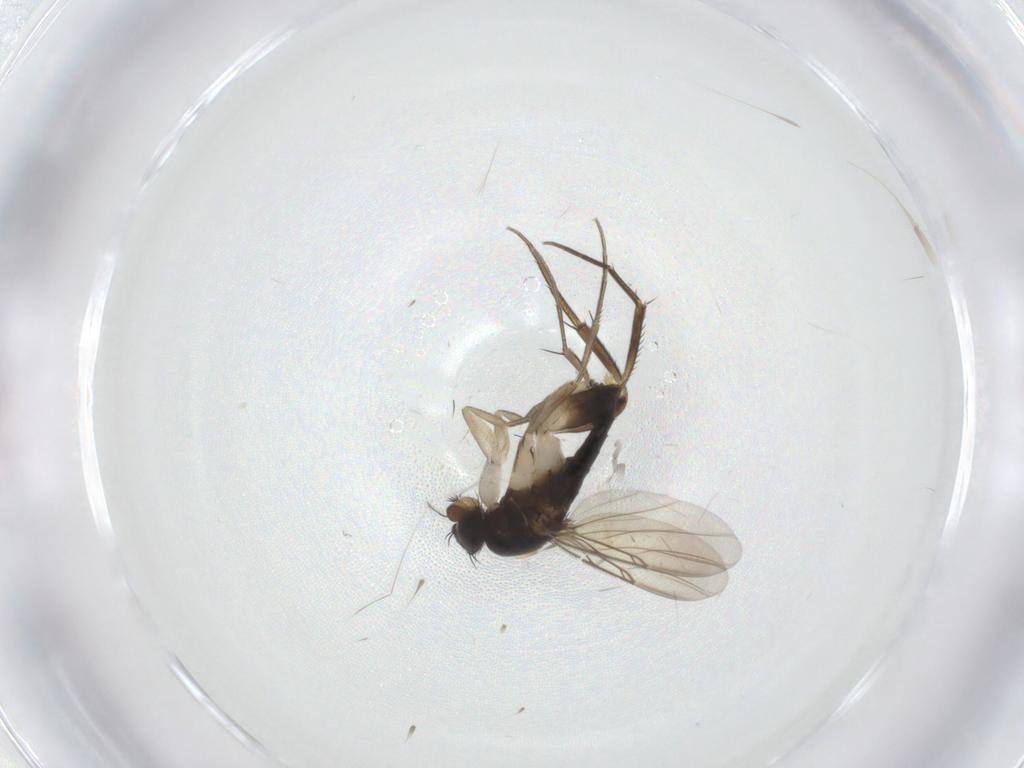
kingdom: Animalia
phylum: Arthropoda
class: Insecta
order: Diptera
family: Phoridae
